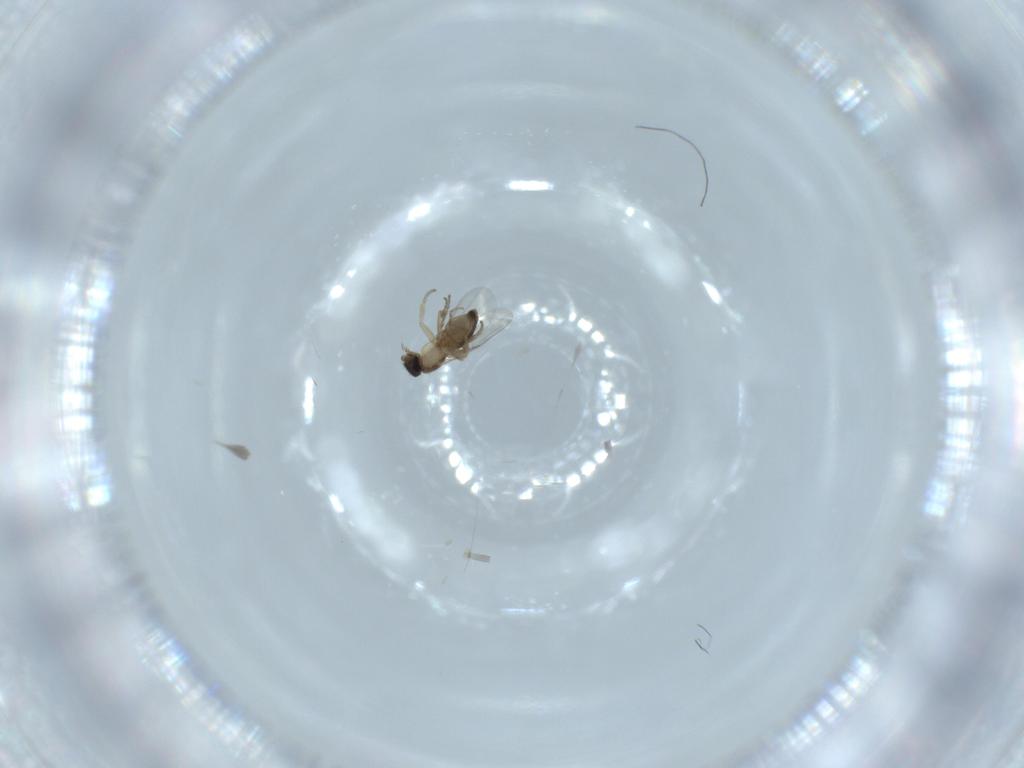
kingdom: Animalia
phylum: Arthropoda
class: Insecta
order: Diptera
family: Phoridae
